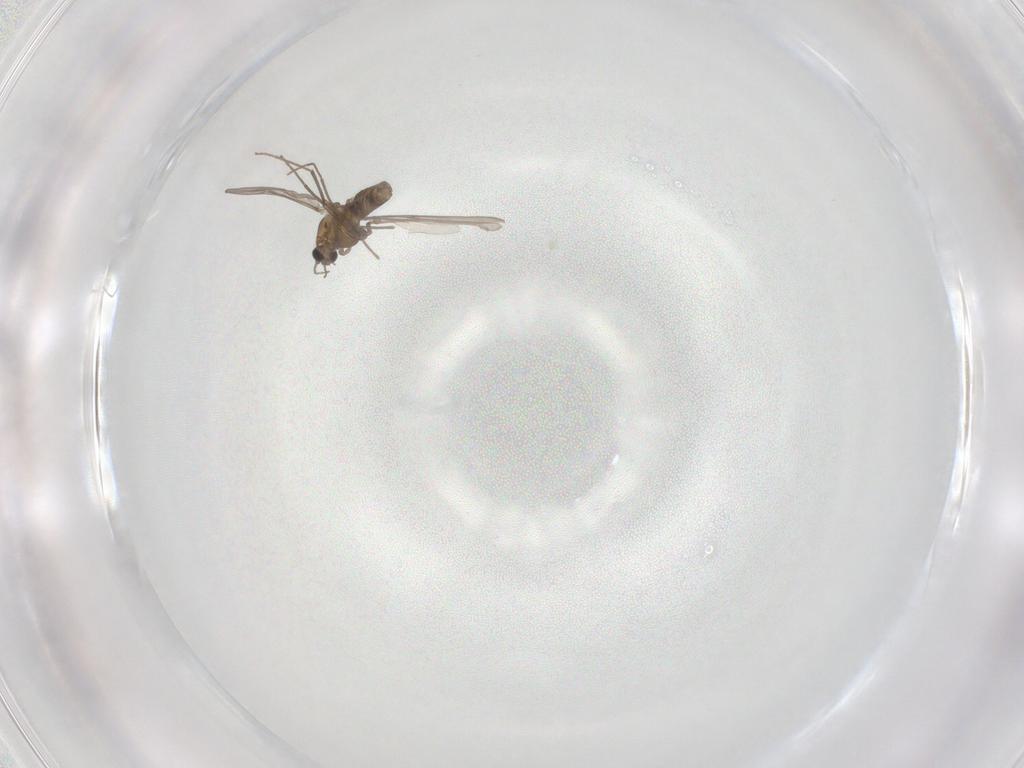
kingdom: Animalia
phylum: Arthropoda
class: Insecta
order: Diptera
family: Chironomidae
